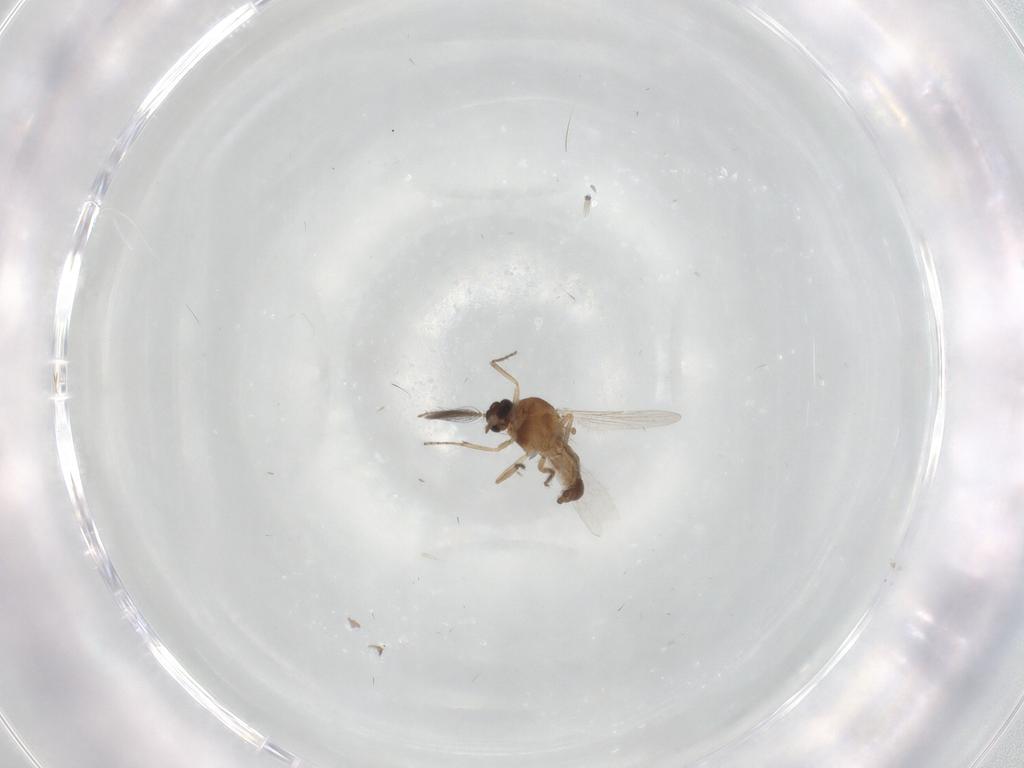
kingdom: Animalia
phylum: Arthropoda
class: Insecta
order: Diptera
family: Ceratopogonidae
